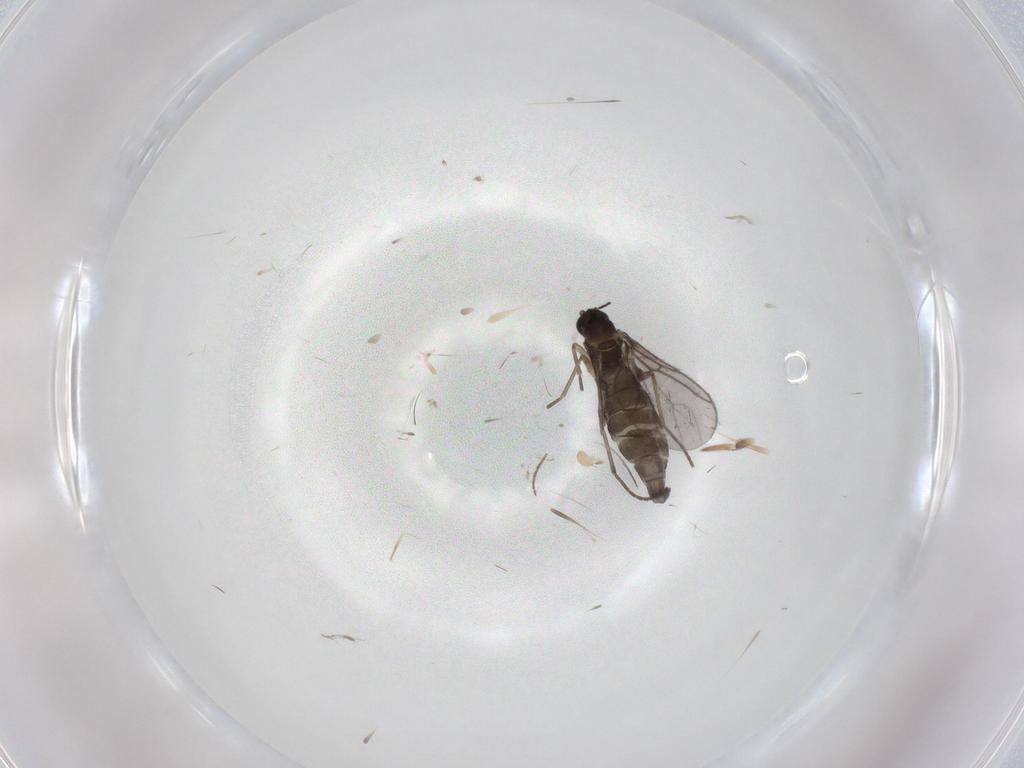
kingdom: Animalia
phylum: Arthropoda
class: Insecta
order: Diptera
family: Sciaridae
